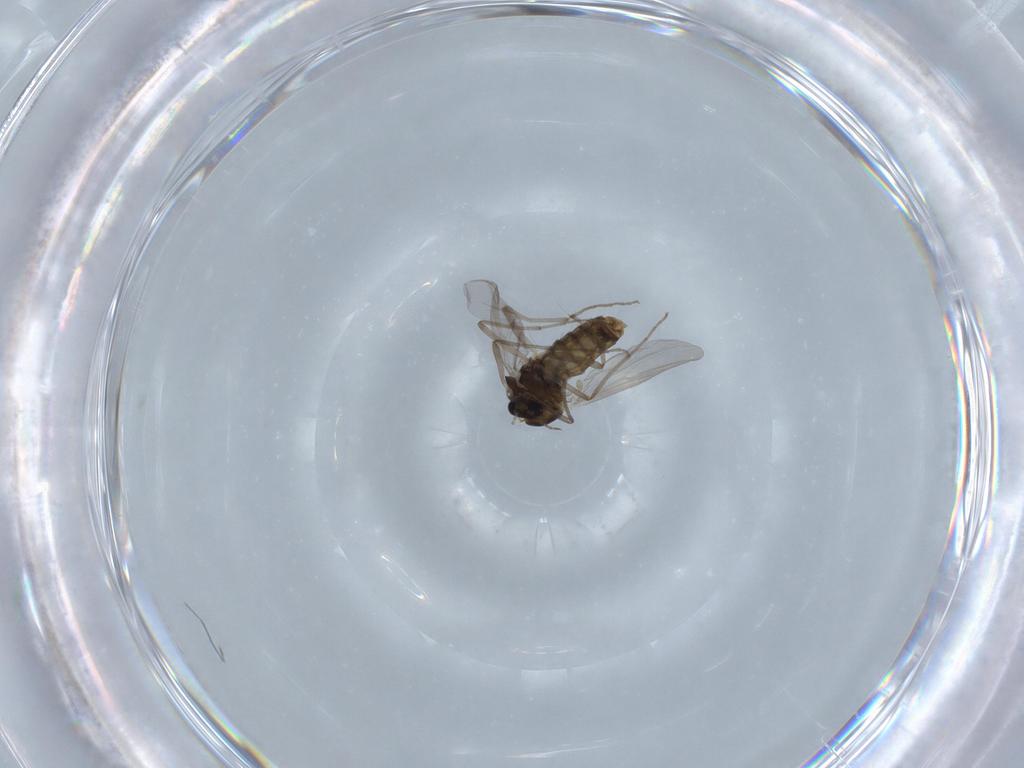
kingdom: Animalia
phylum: Arthropoda
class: Insecta
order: Diptera
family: Chironomidae
